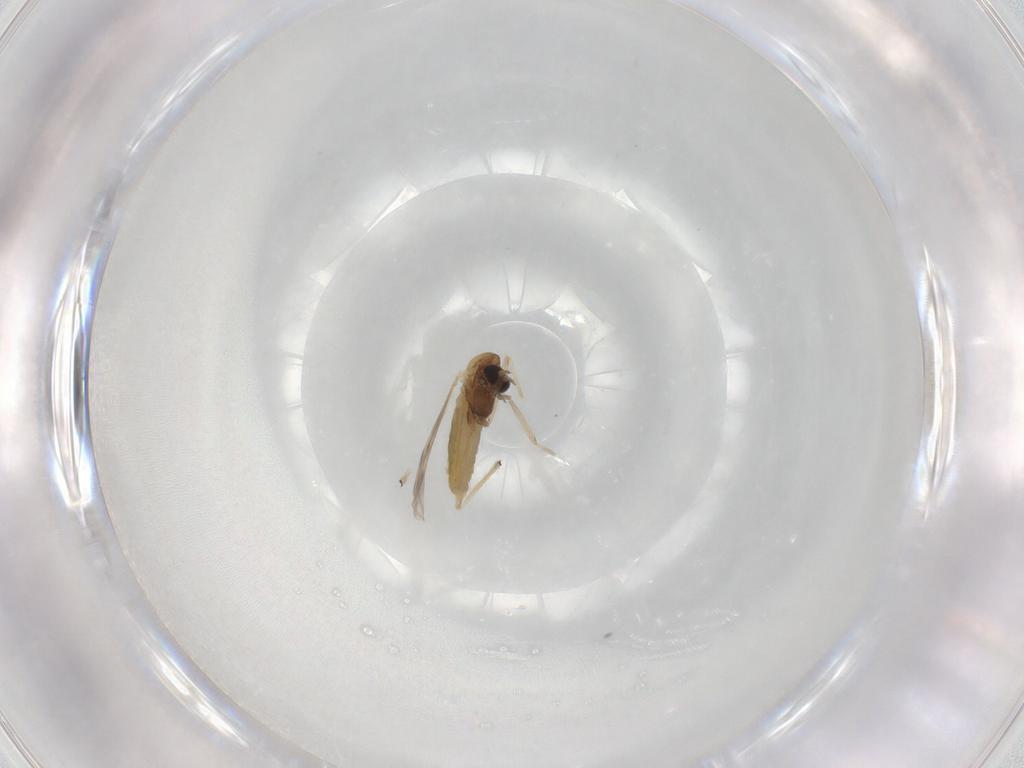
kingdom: Animalia
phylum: Arthropoda
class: Insecta
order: Diptera
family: Chironomidae
